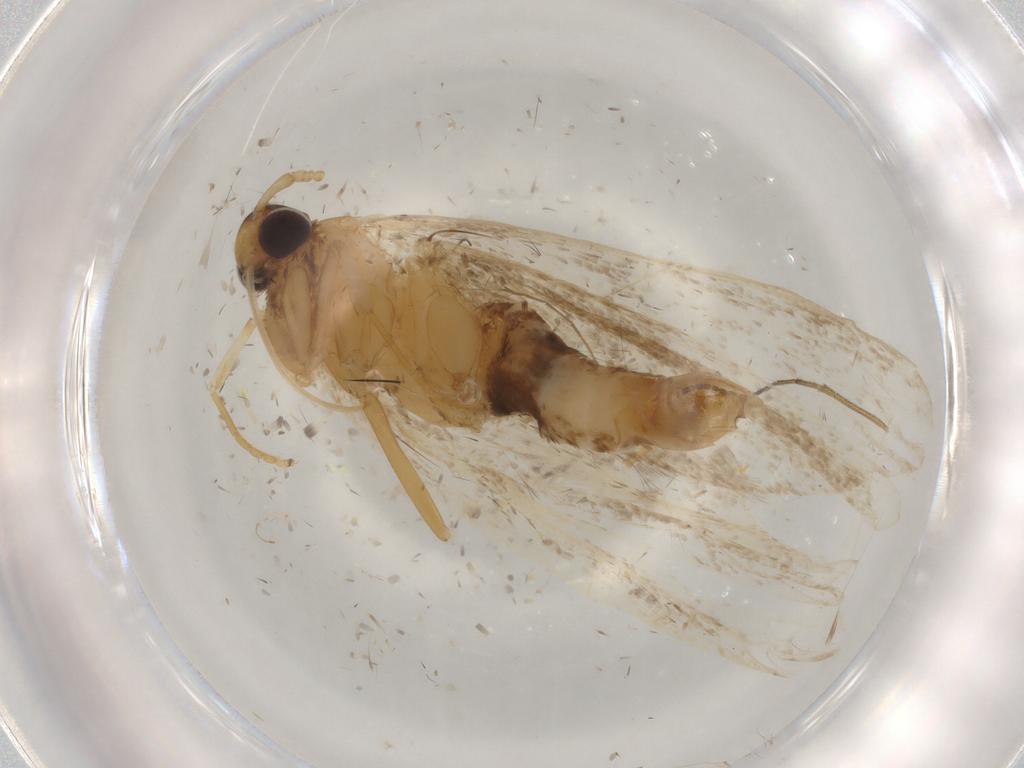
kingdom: Animalia
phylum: Arthropoda
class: Insecta
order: Lepidoptera
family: Lecithoceridae
